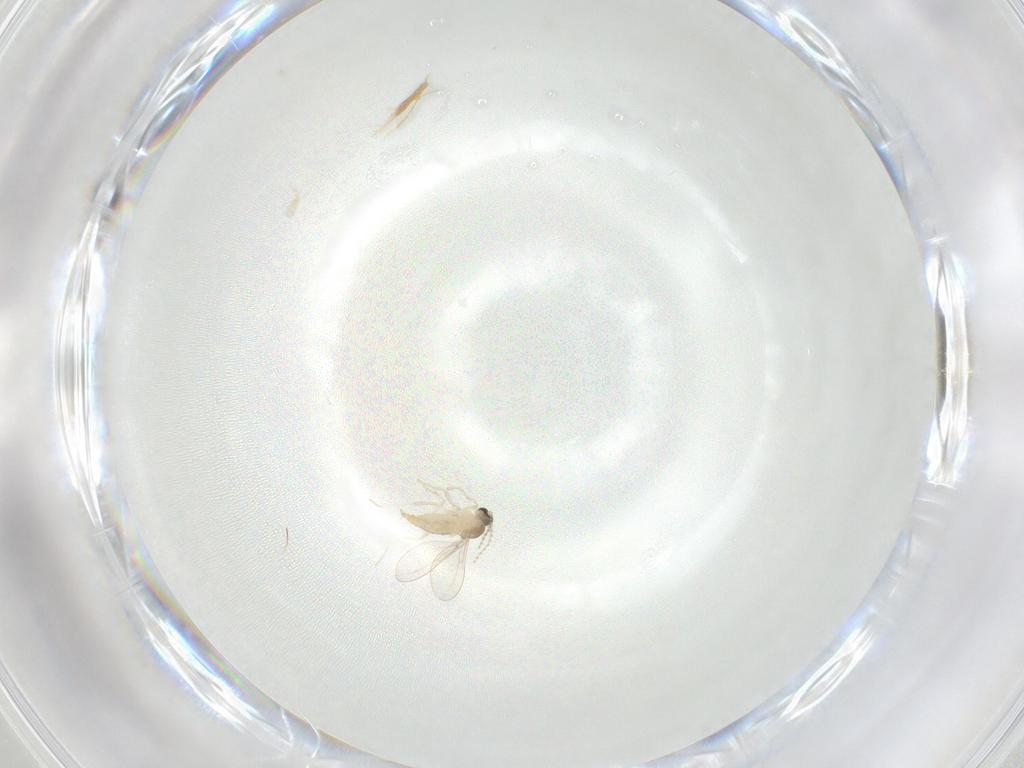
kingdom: Animalia
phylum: Arthropoda
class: Insecta
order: Diptera
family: Cecidomyiidae
